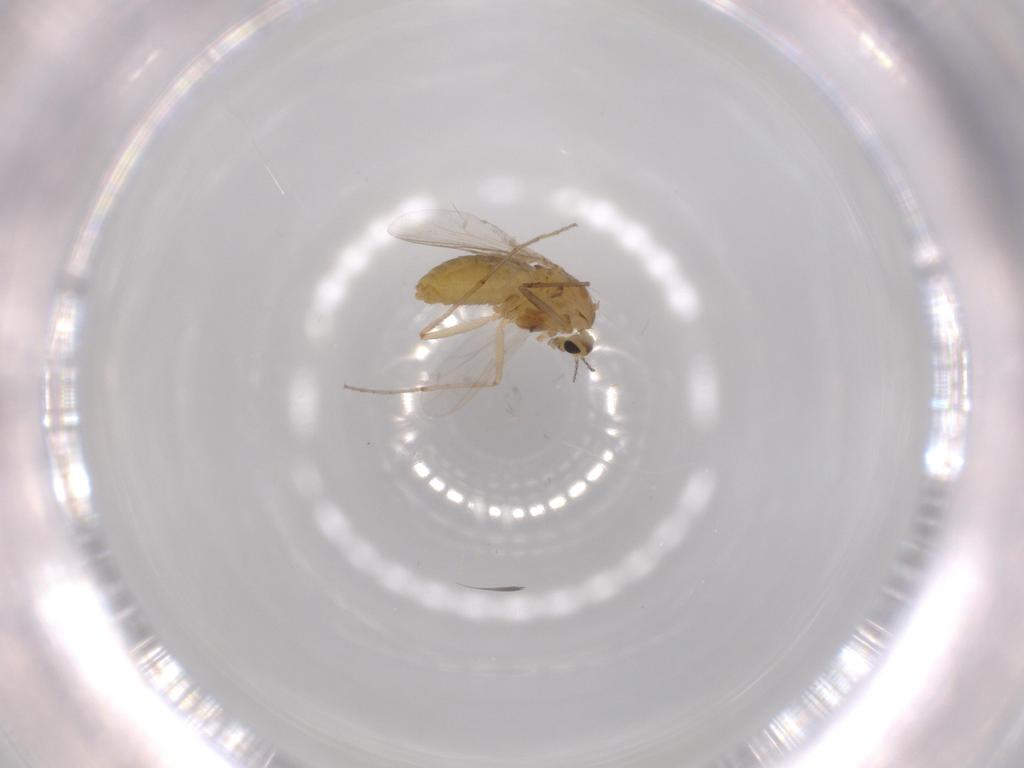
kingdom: Animalia
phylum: Arthropoda
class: Insecta
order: Diptera
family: Chironomidae
